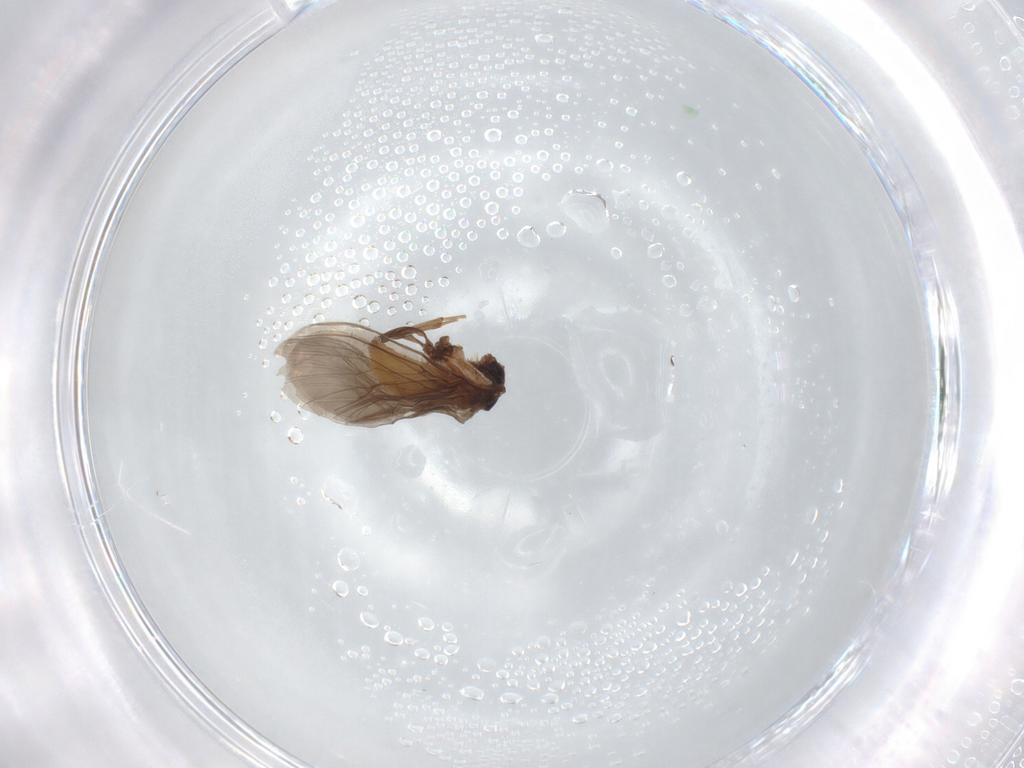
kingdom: Animalia
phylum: Arthropoda
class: Insecta
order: Neuroptera
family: Coniopterygidae
